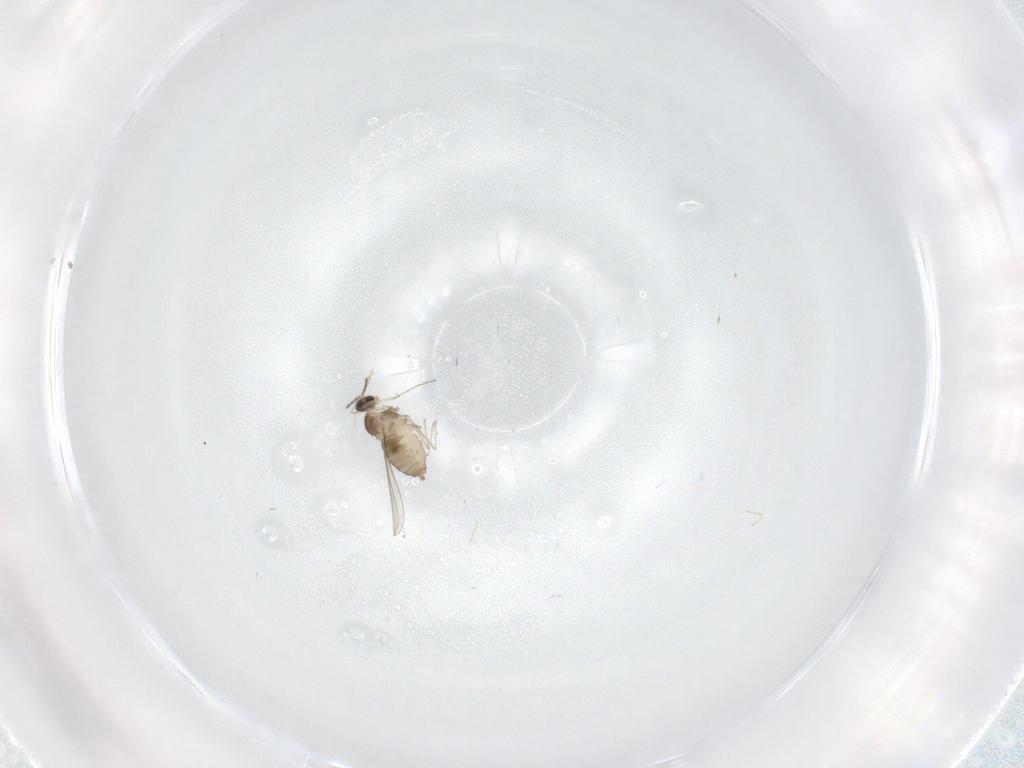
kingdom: Animalia
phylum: Arthropoda
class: Insecta
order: Diptera
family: Cecidomyiidae
